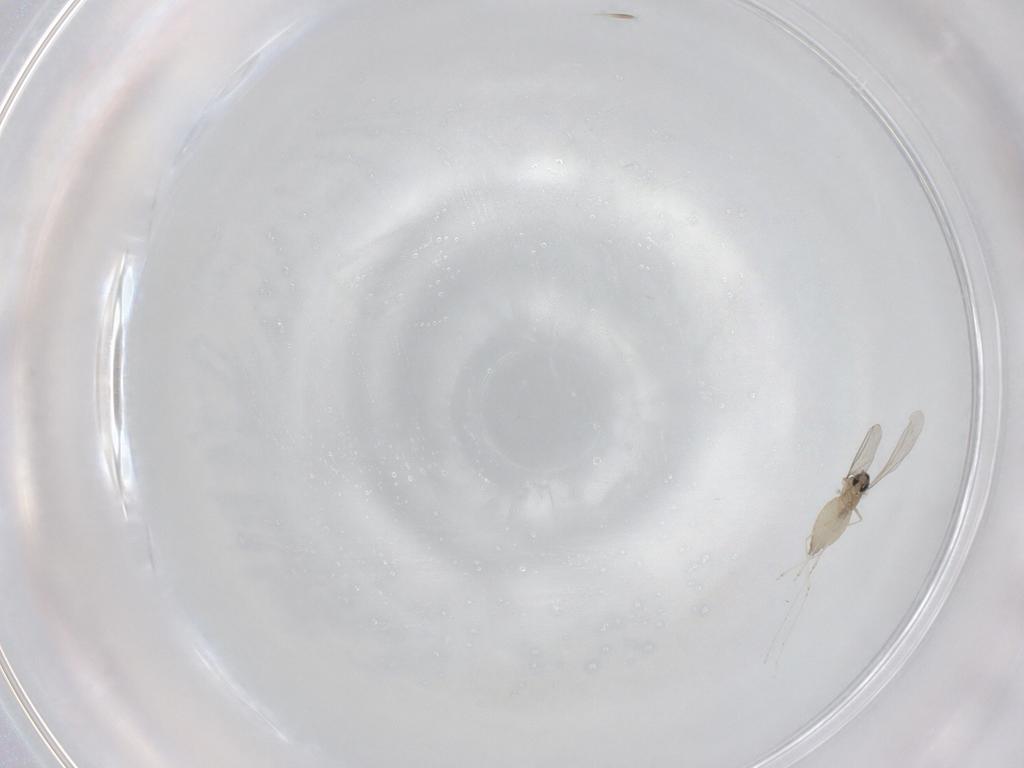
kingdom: Animalia
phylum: Arthropoda
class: Insecta
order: Diptera
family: Cecidomyiidae
